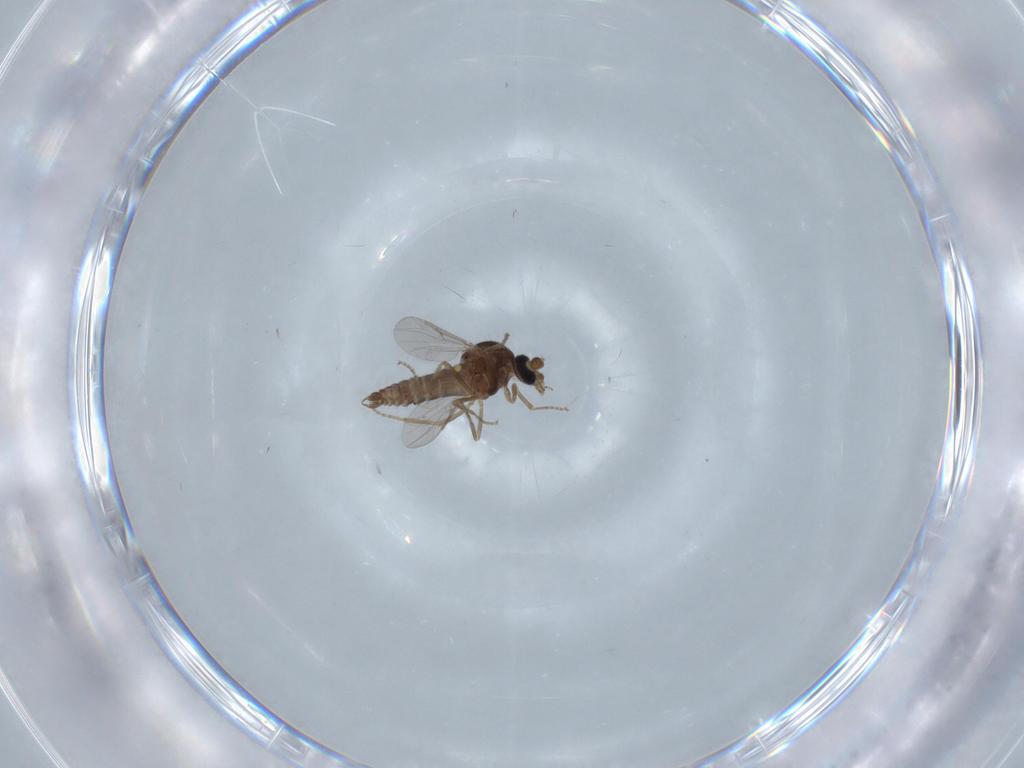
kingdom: Animalia
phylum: Arthropoda
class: Insecta
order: Diptera
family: Ceratopogonidae
